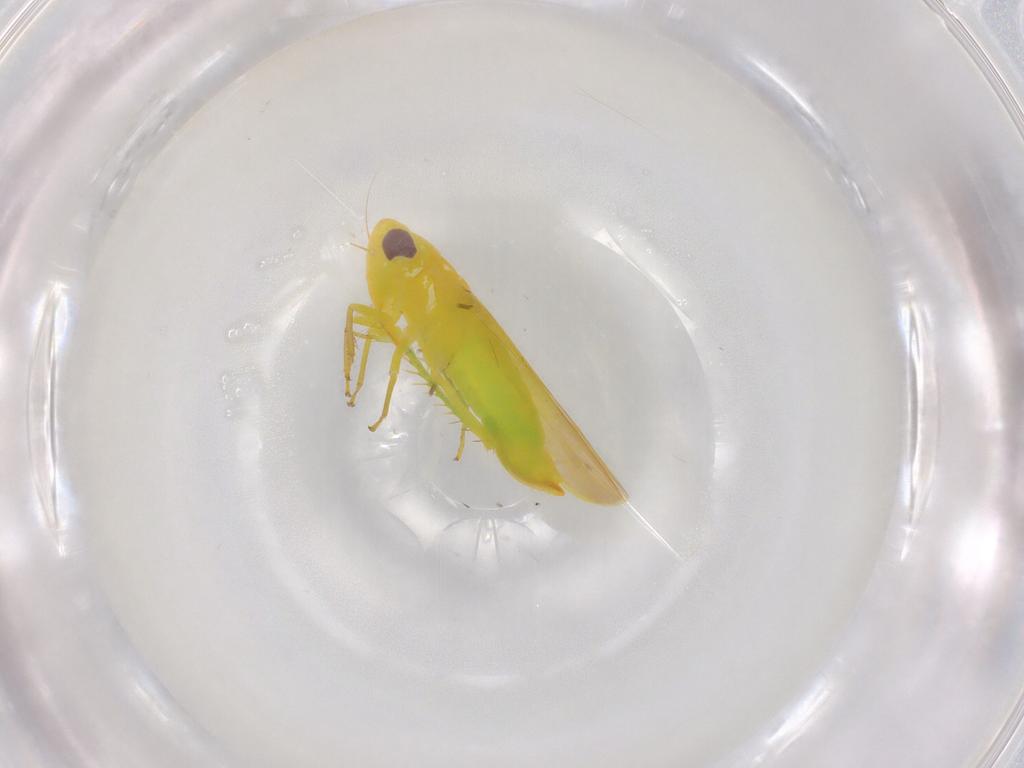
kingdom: Animalia
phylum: Arthropoda
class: Insecta
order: Hemiptera
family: Cicadellidae
